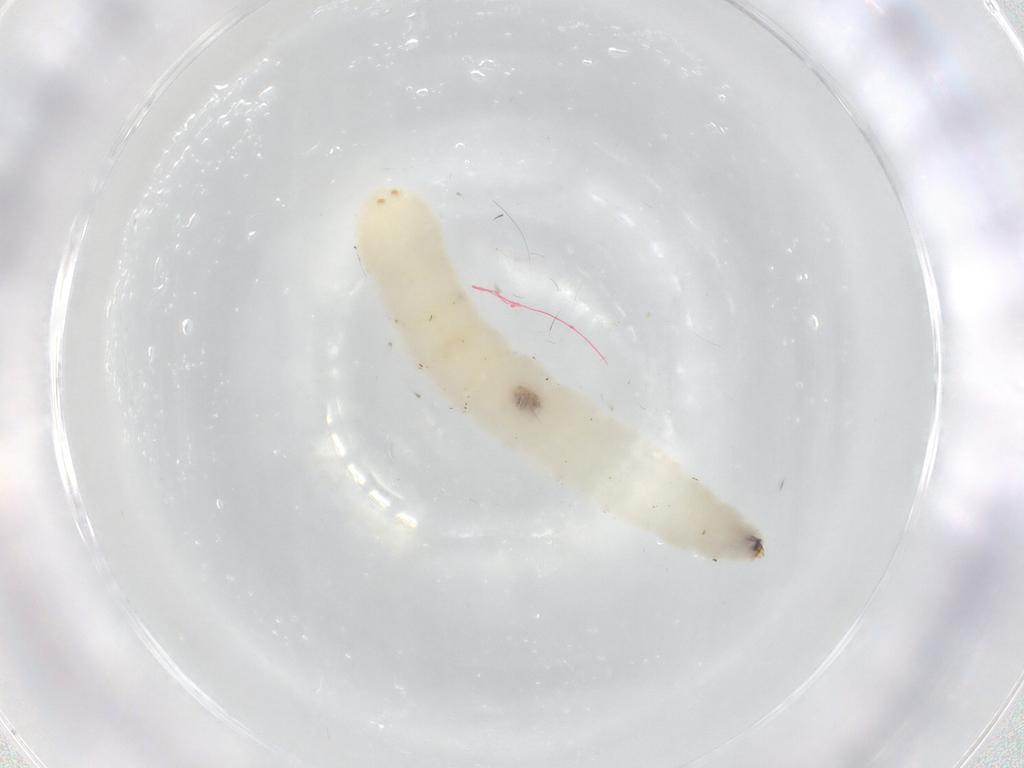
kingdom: Animalia
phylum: Arthropoda
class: Insecta
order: Diptera
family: Empididae
